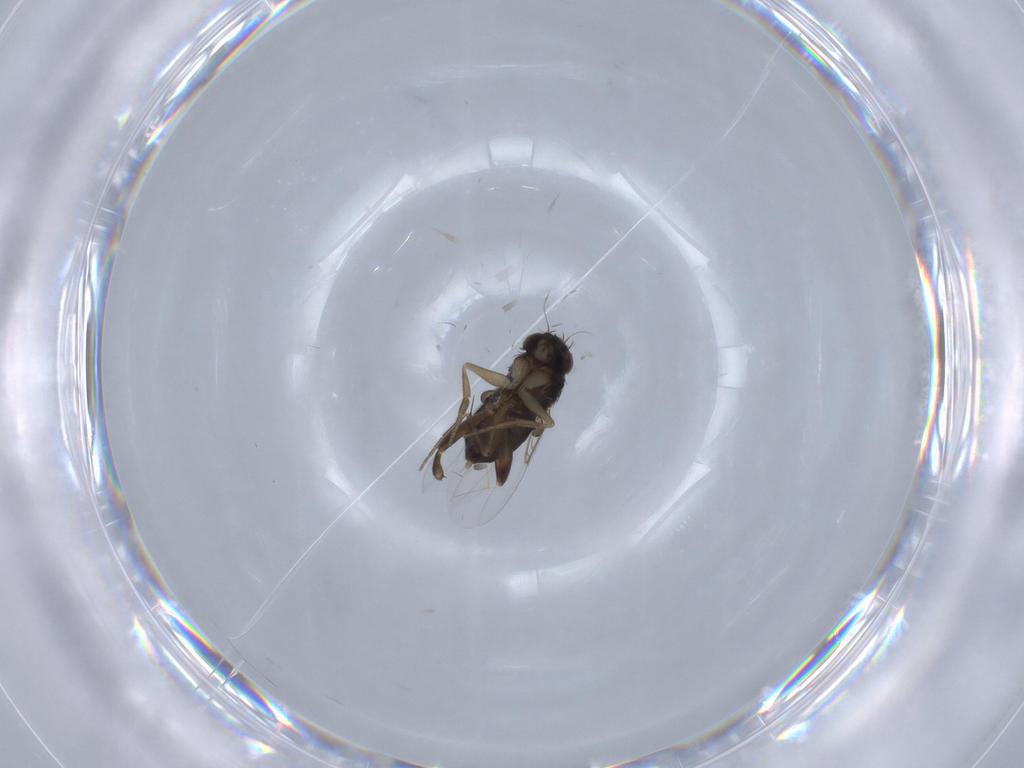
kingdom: Animalia
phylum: Arthropoda
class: Insecta
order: Diptera
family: Phoridae
